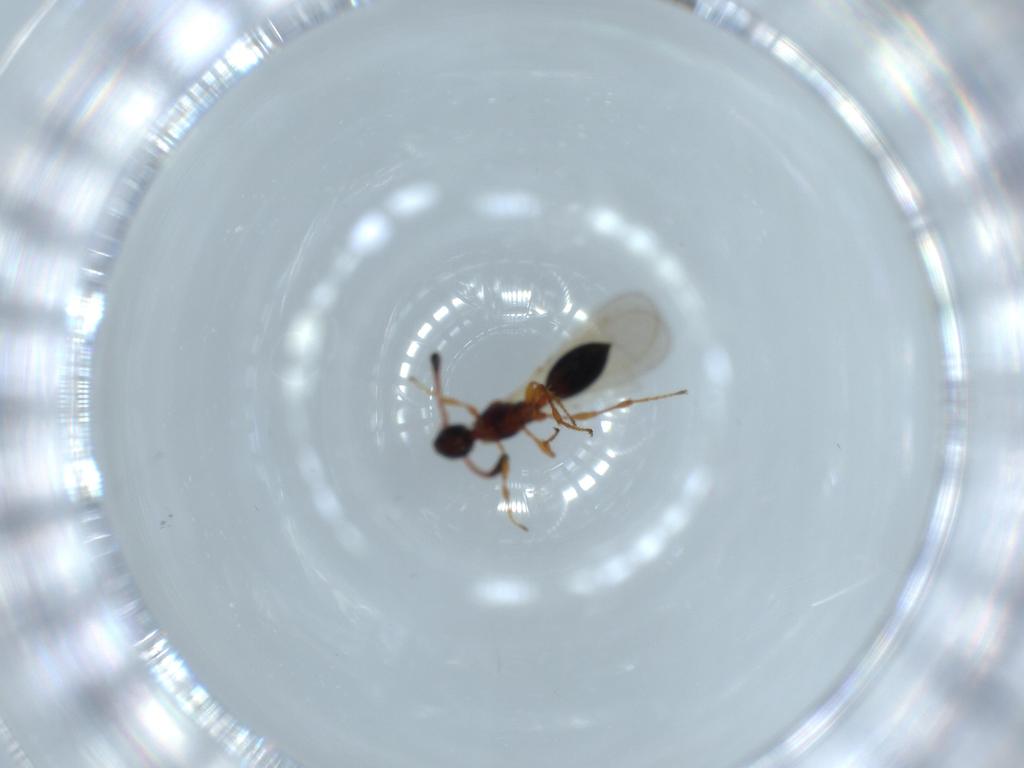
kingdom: Animalia
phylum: Arthropoda
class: Insecta
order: Hymenoptera
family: Diapriidae
